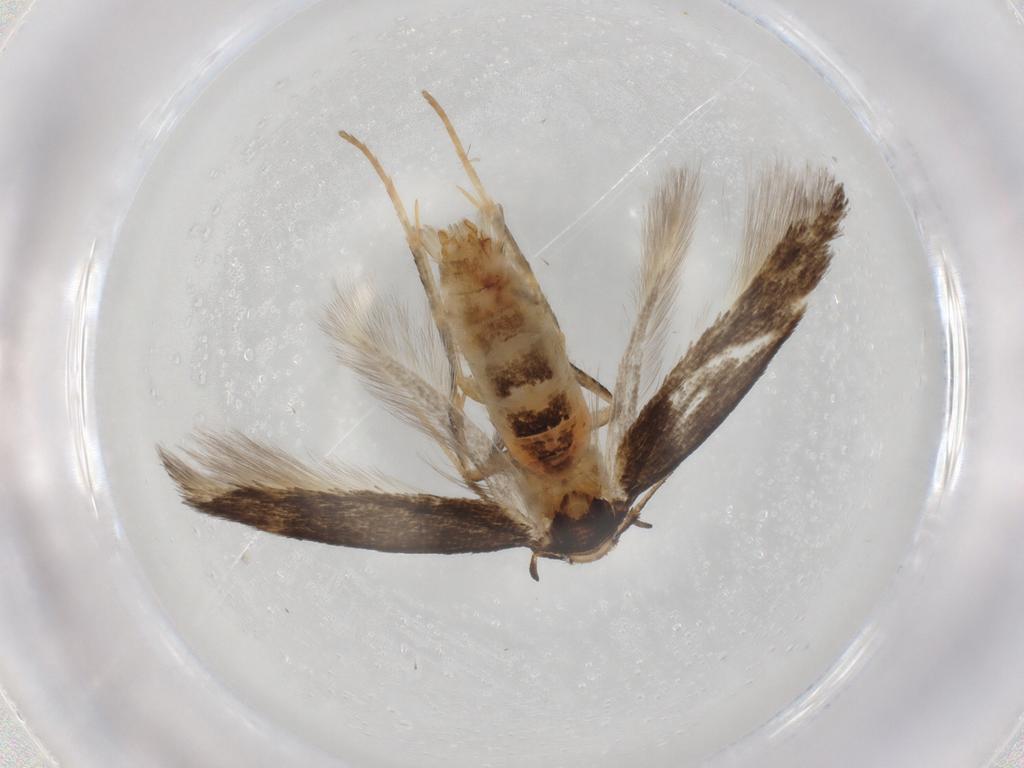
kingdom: Animalia
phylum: Arthropoda
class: Insecta
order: Lepidoptera
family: Gelechiidae
